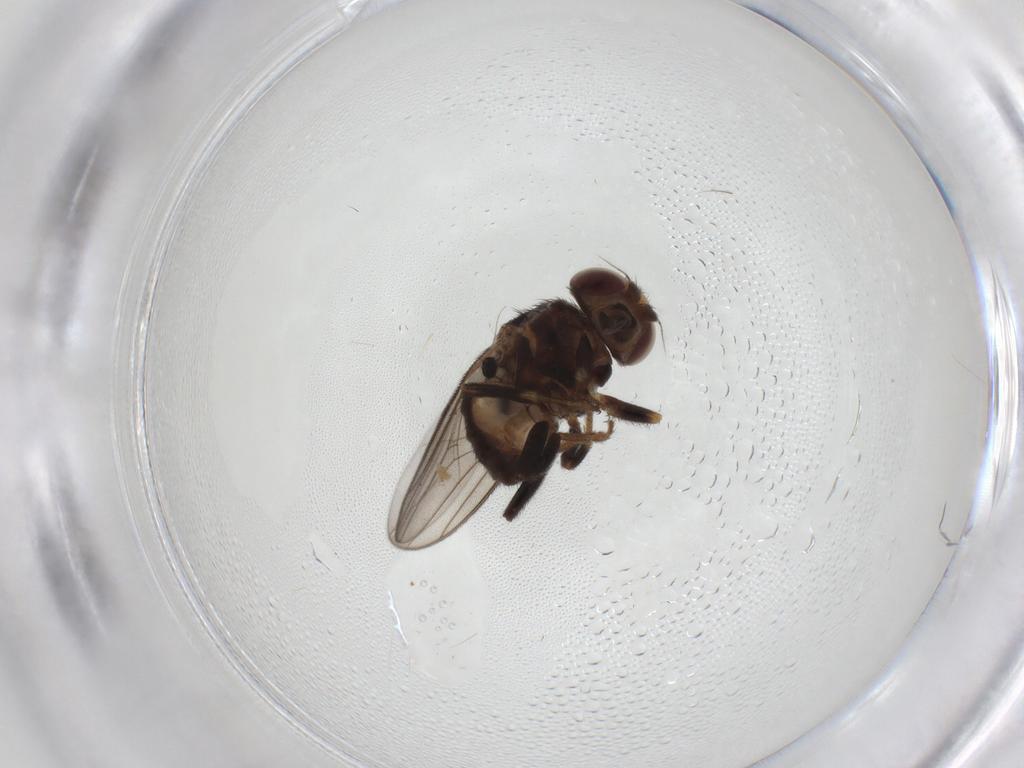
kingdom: Animalia
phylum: Arthropoda
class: Insecta
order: Diptera
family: Chloropidae
